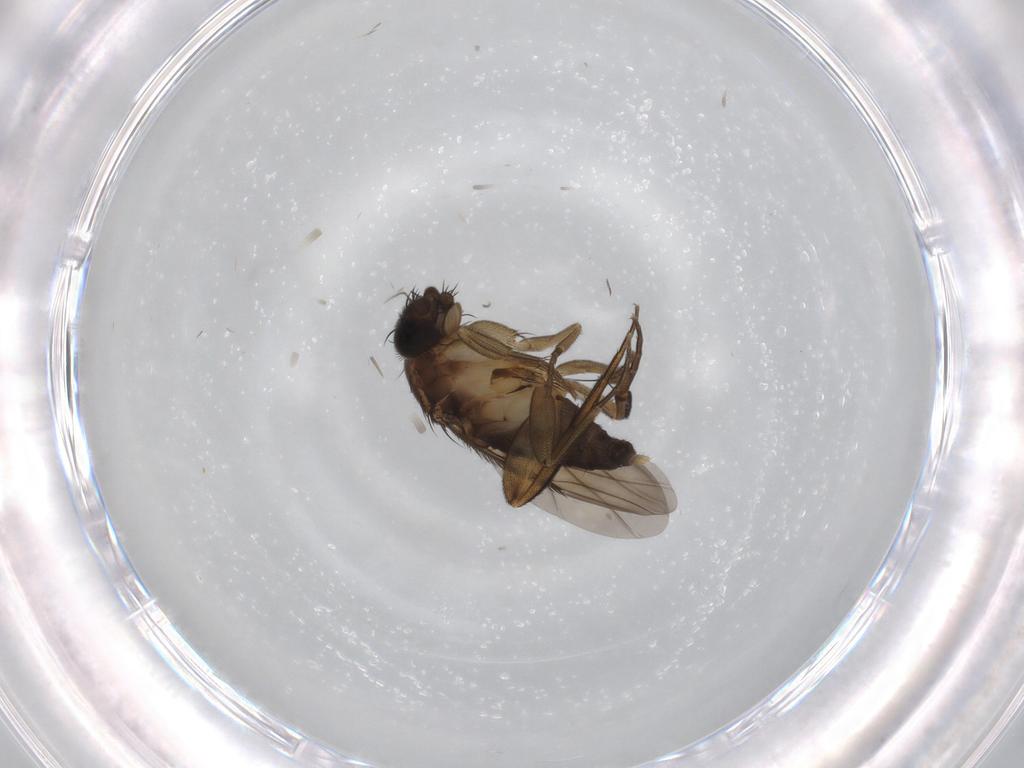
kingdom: Animalia
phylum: Arthropoda
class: Insecta
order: Diptera
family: Phoridae
